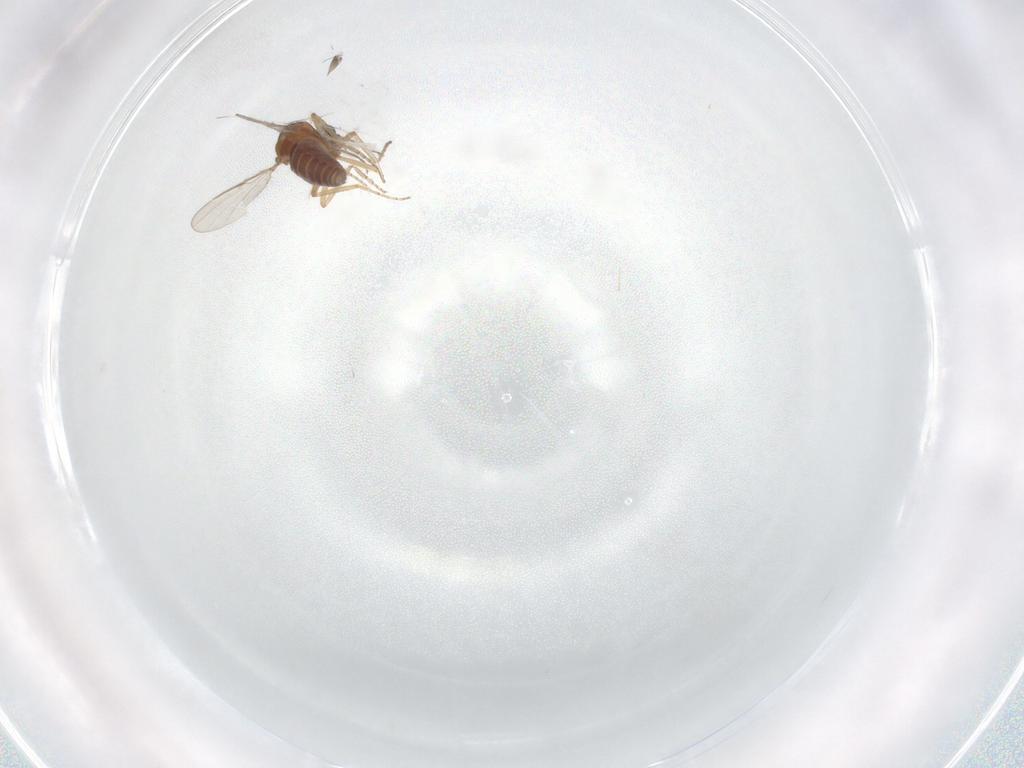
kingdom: Animalia
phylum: Arthropoda
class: Insecta
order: Diptera
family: Ceratopogonidae
